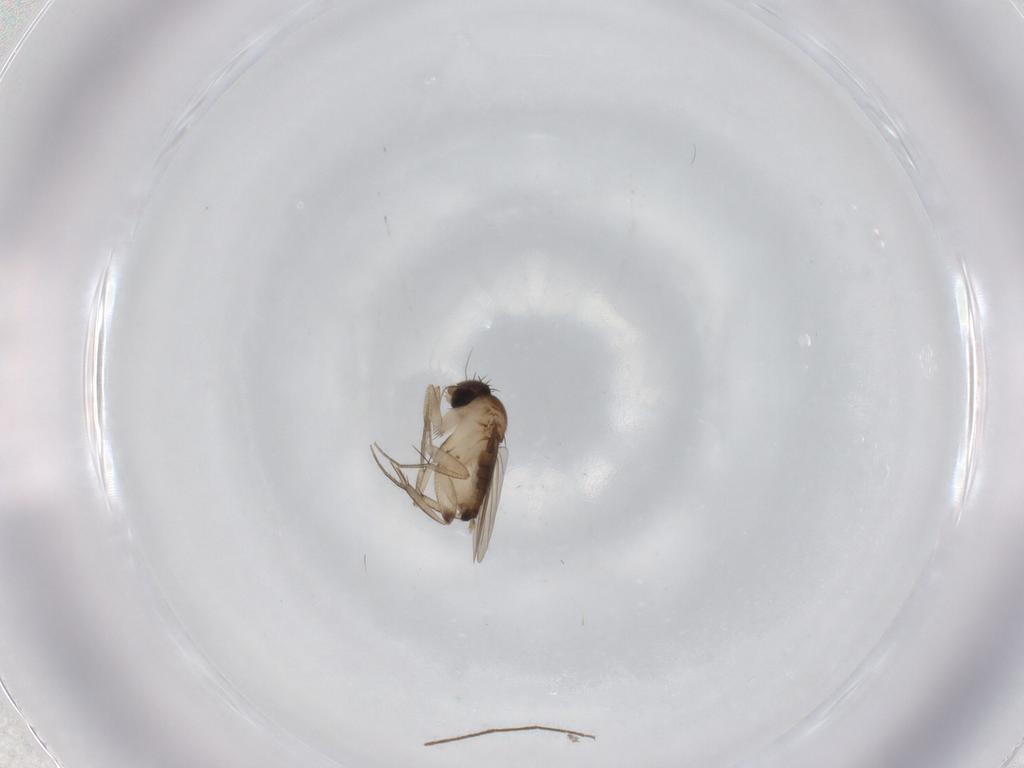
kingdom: Animalia
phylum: Arthropoda
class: Insecta
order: Diptera
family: Phoridae
